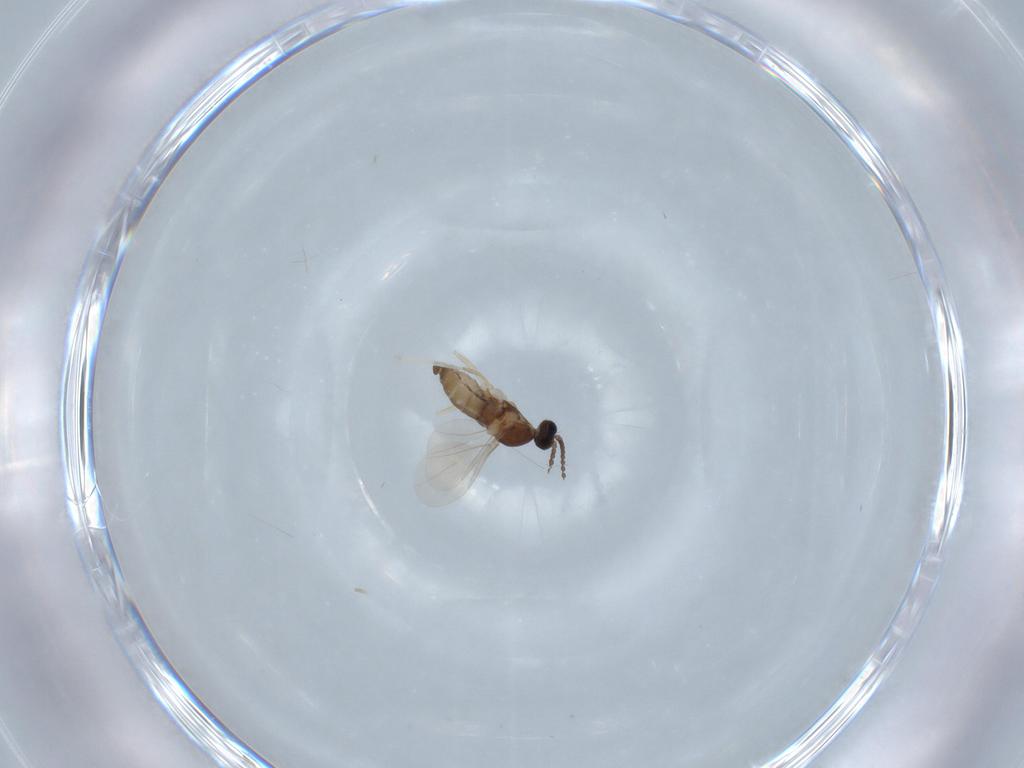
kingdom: Animalia
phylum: Arthropoda
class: Insecta
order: Diptera
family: Cecidomyiidae
